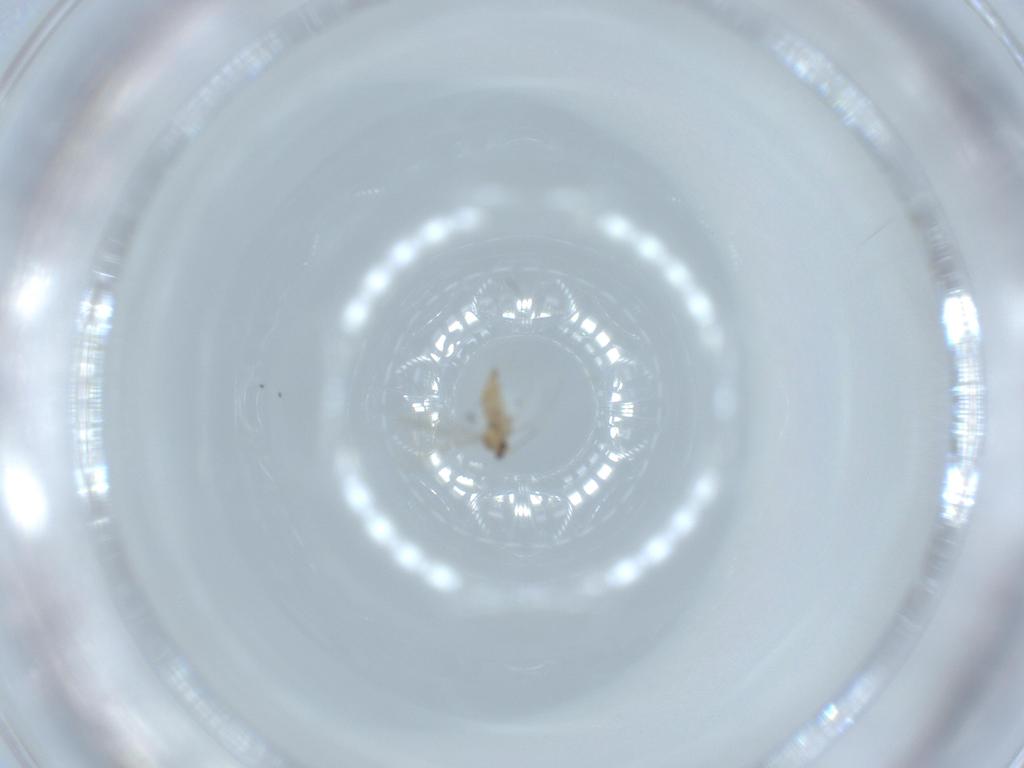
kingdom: Animalia
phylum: Arthropoda
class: Insecta
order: Diptera
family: Cecidomyiidae
